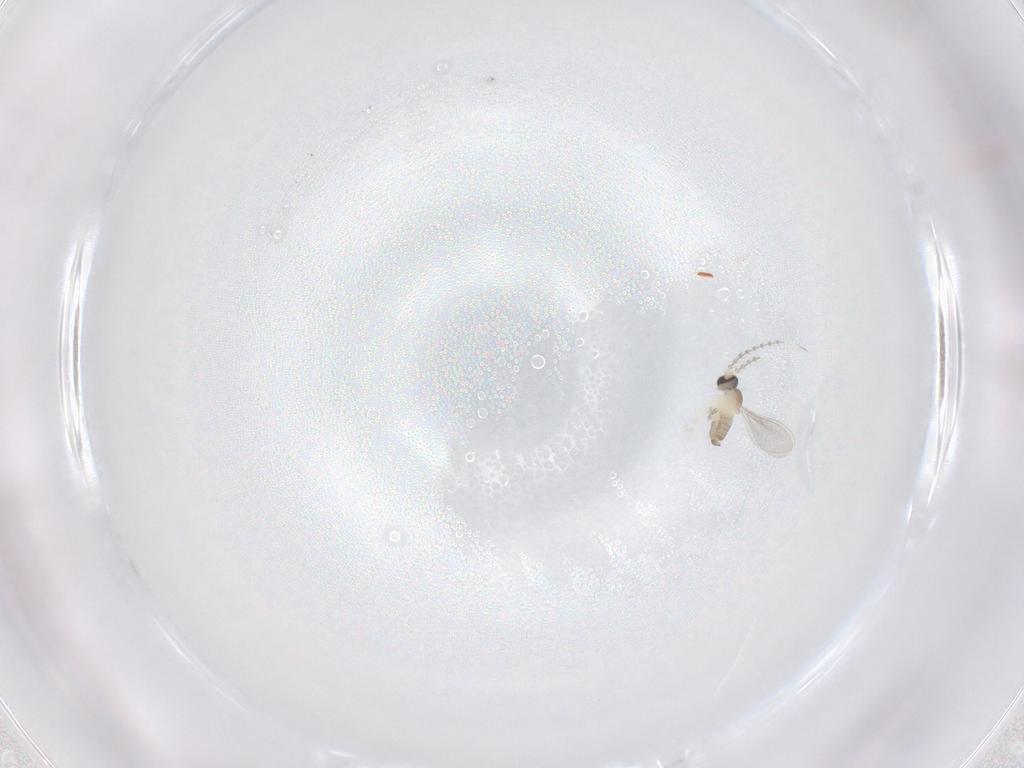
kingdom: Animalia
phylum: Arthropoda
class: Insecta
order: Diptera
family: Cecidomyiidae
